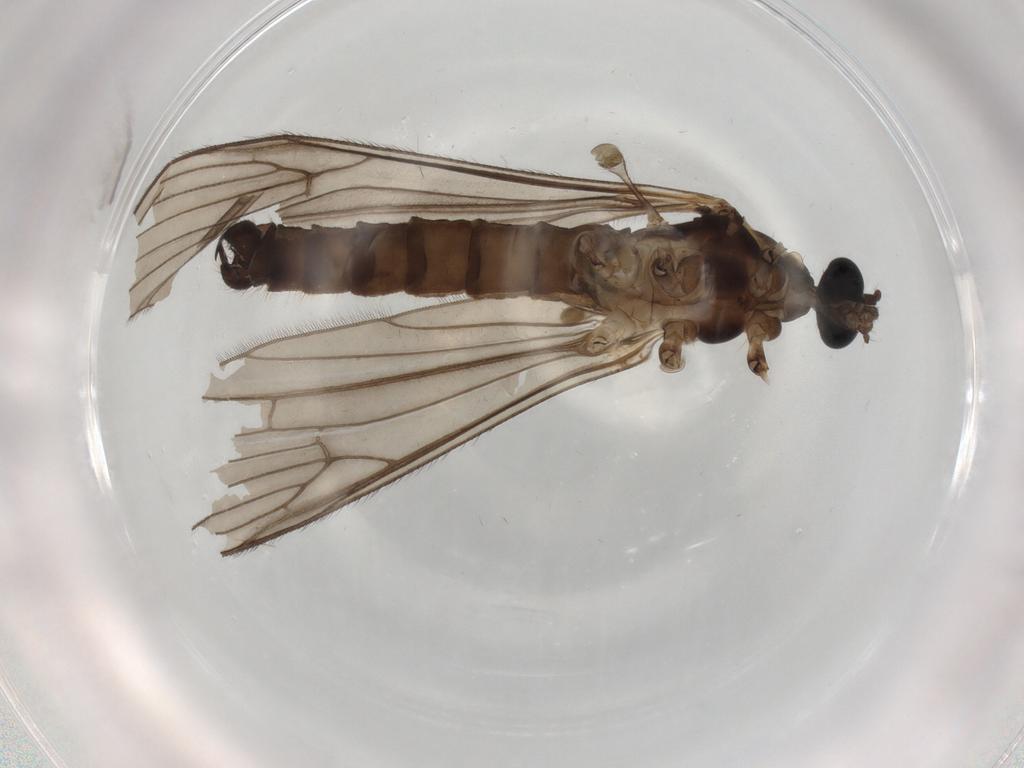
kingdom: Animalia
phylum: Arthropoda
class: Insecta
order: Diptera
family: Limoniidae
